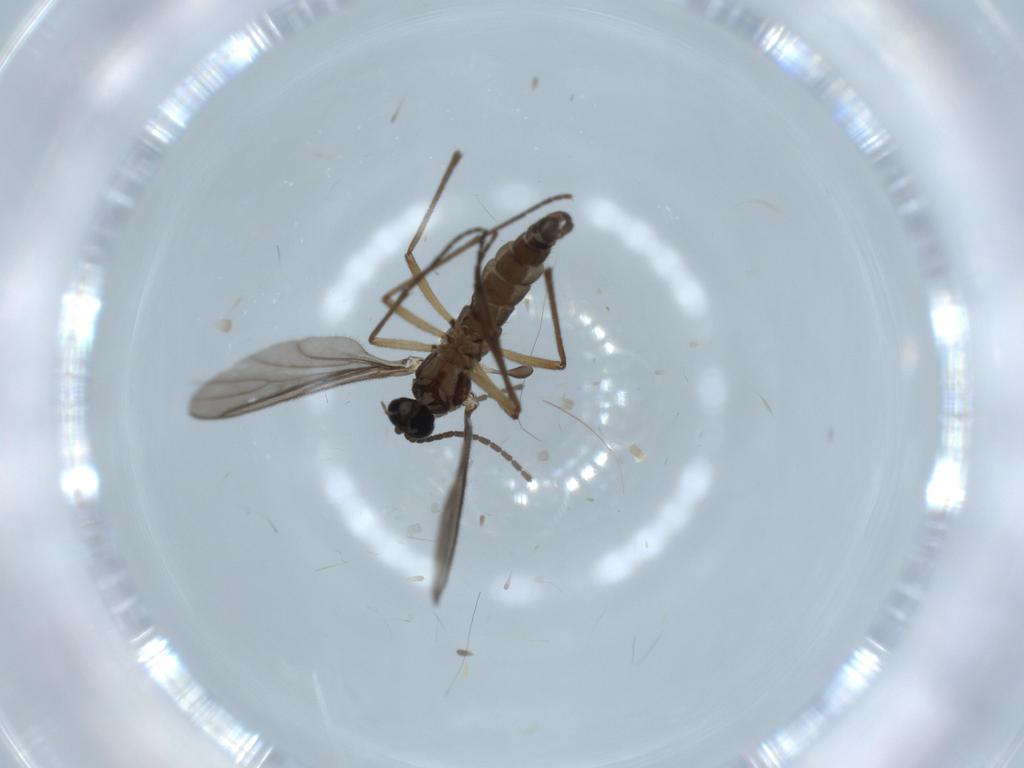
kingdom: Animalia
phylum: Arthropoda
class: Insecta
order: Diptera
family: Sciaridae
